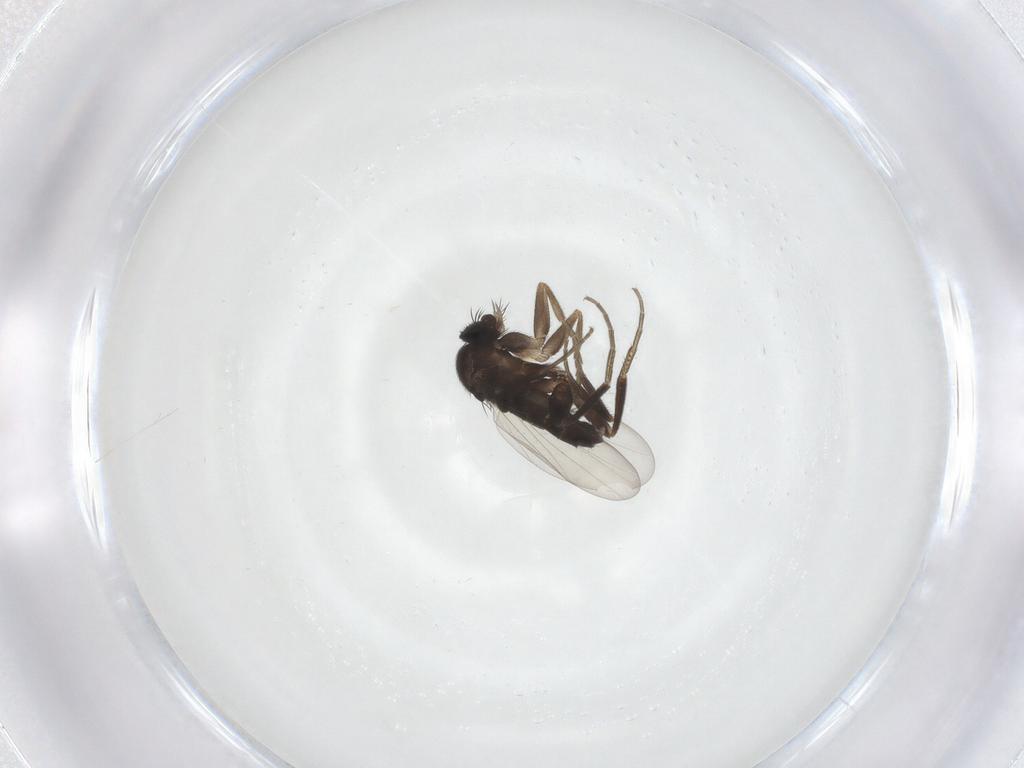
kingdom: Animalia
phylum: Arthropoda
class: Insecta
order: Diptera
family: Phoridae
